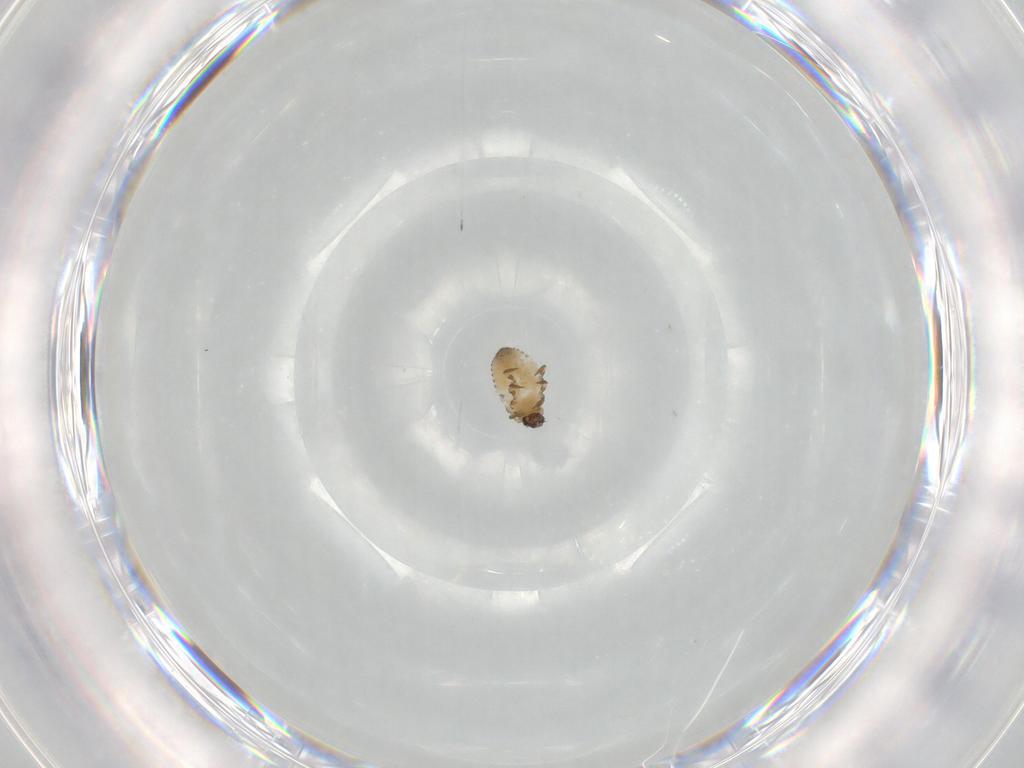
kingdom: Animalia
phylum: Arthropoda
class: Insecta
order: Coleoptera
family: Coccinellidae
